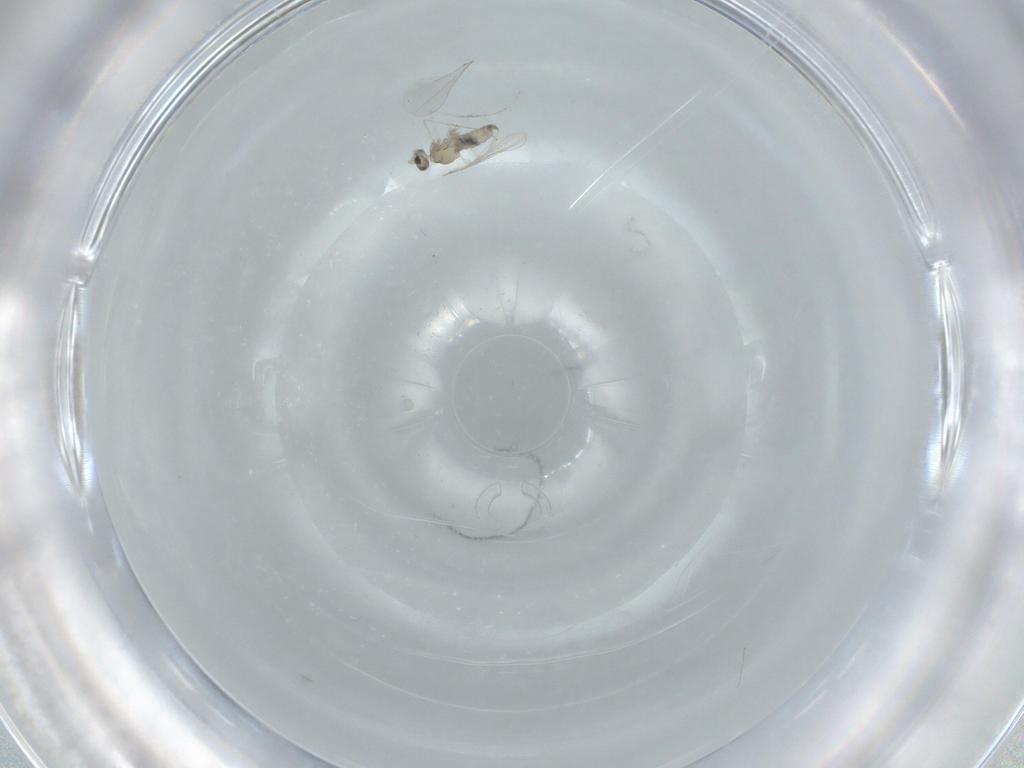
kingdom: Animalia
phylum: Arthropoda
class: Insecta
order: Diptera
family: Cecidomyiidae
